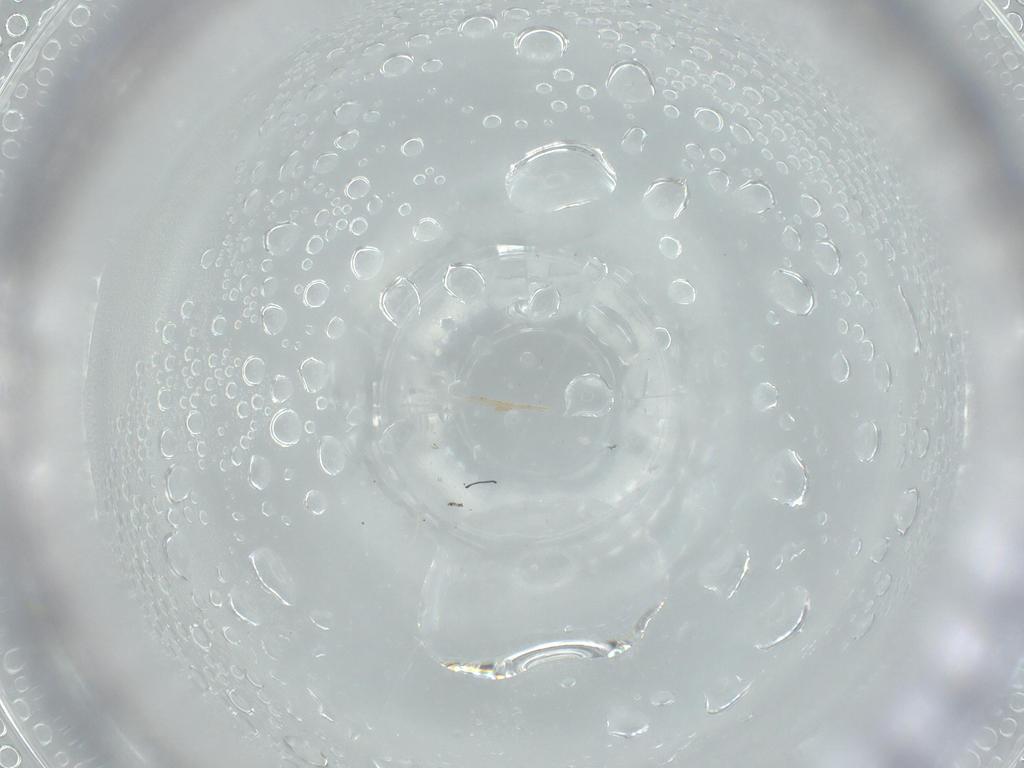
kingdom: Animalia
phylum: Arthropoda
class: Insecta
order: Hemiptera
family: Diaspididae
